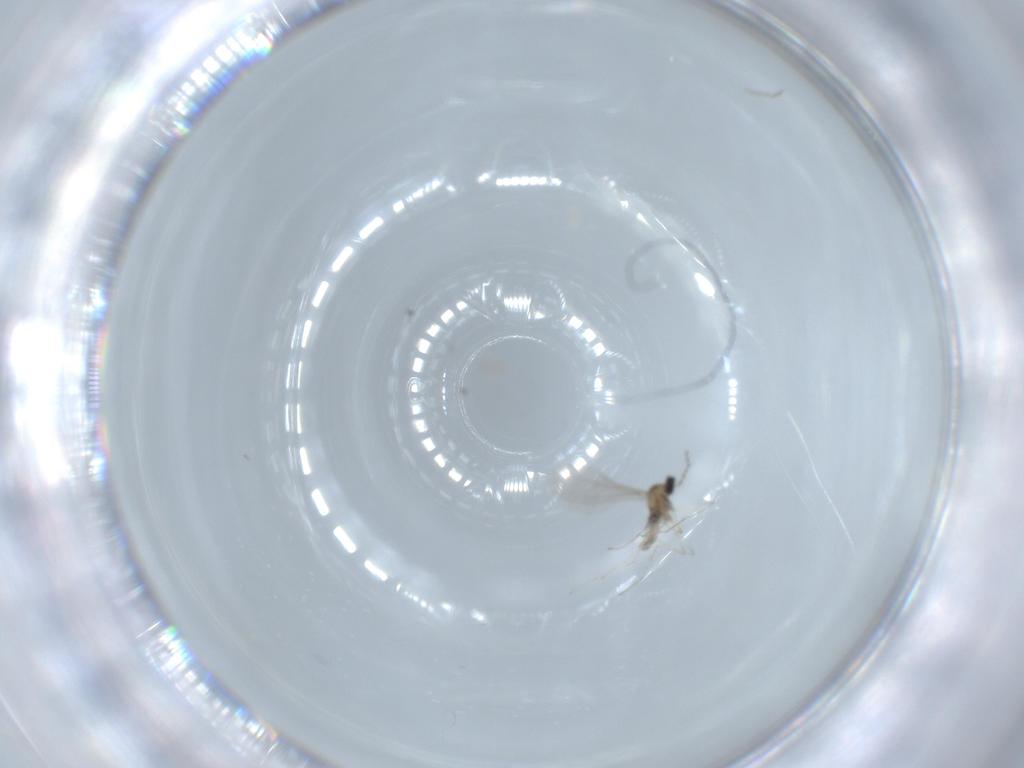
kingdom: Animalia
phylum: Arthropoda
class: Insecta
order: Diptera
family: Cecidomyiidae
